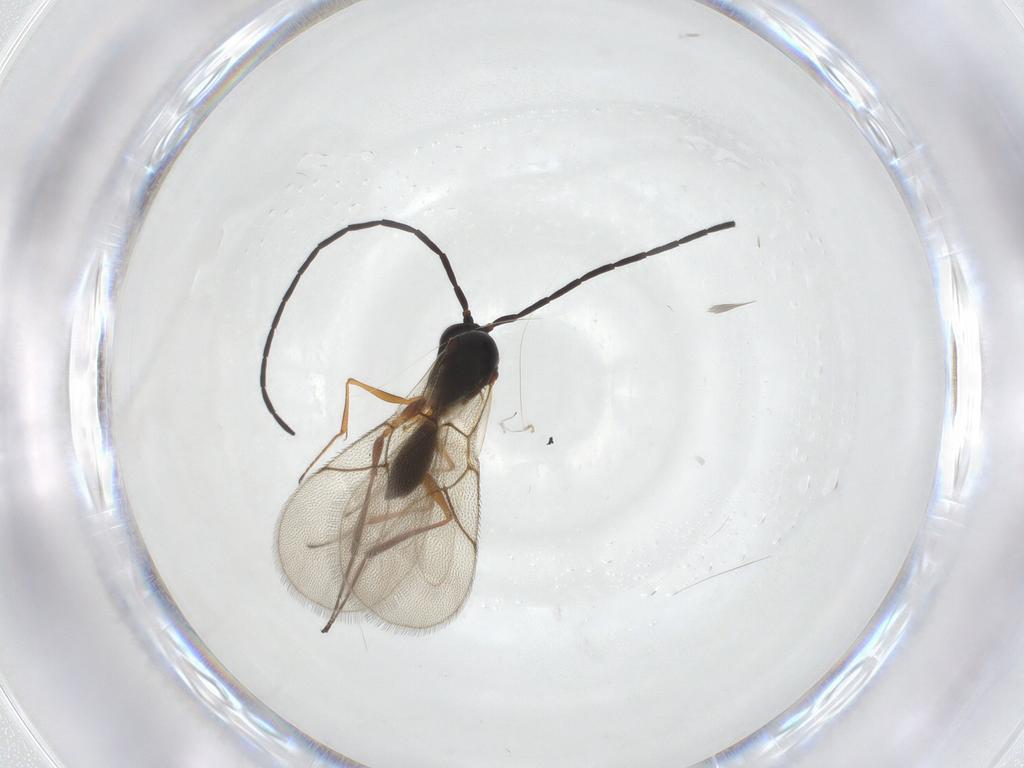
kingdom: Animalia
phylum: Arthropoda
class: Insecta
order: Hymenoptera
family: Figitidae
